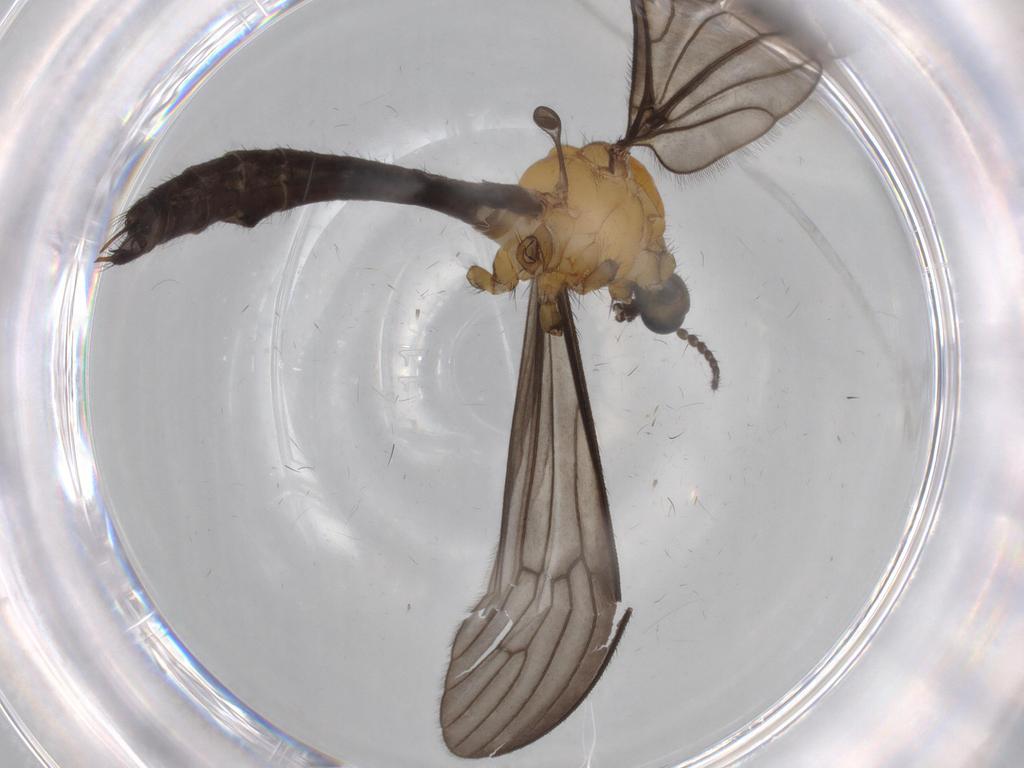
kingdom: Animalia
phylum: Arthropoda
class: Insecta
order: Diptera
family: Limoniidae
